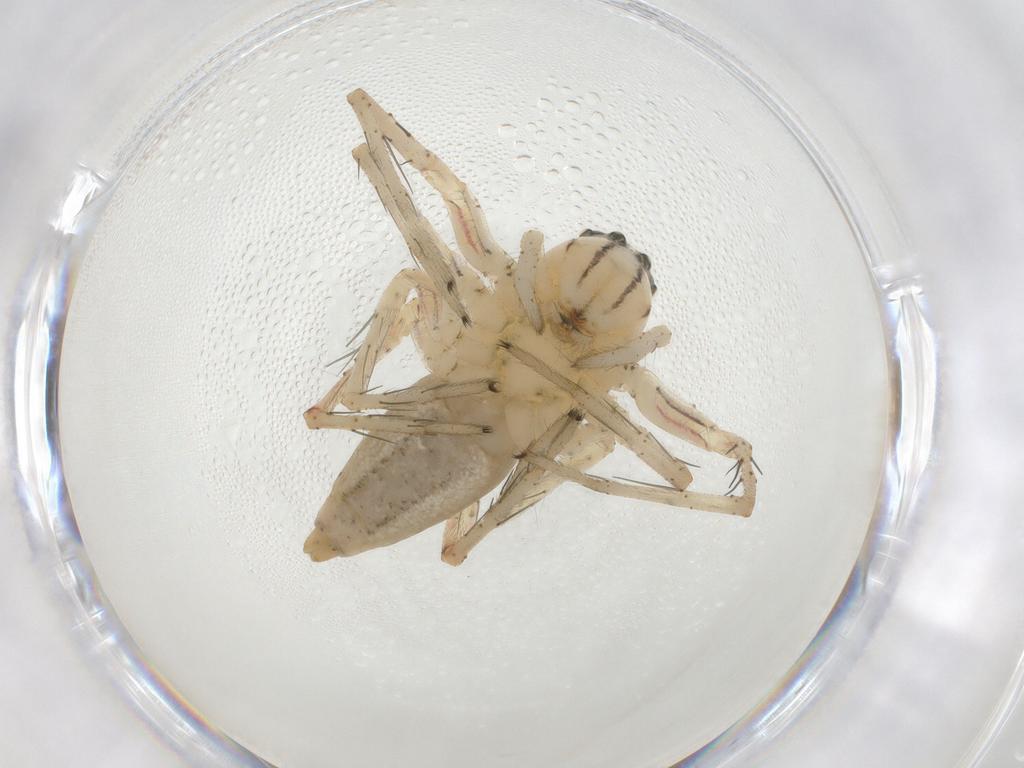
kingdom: Animalia
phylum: Arthropoda
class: Arachnida
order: Araneae
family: Oxyopidae
